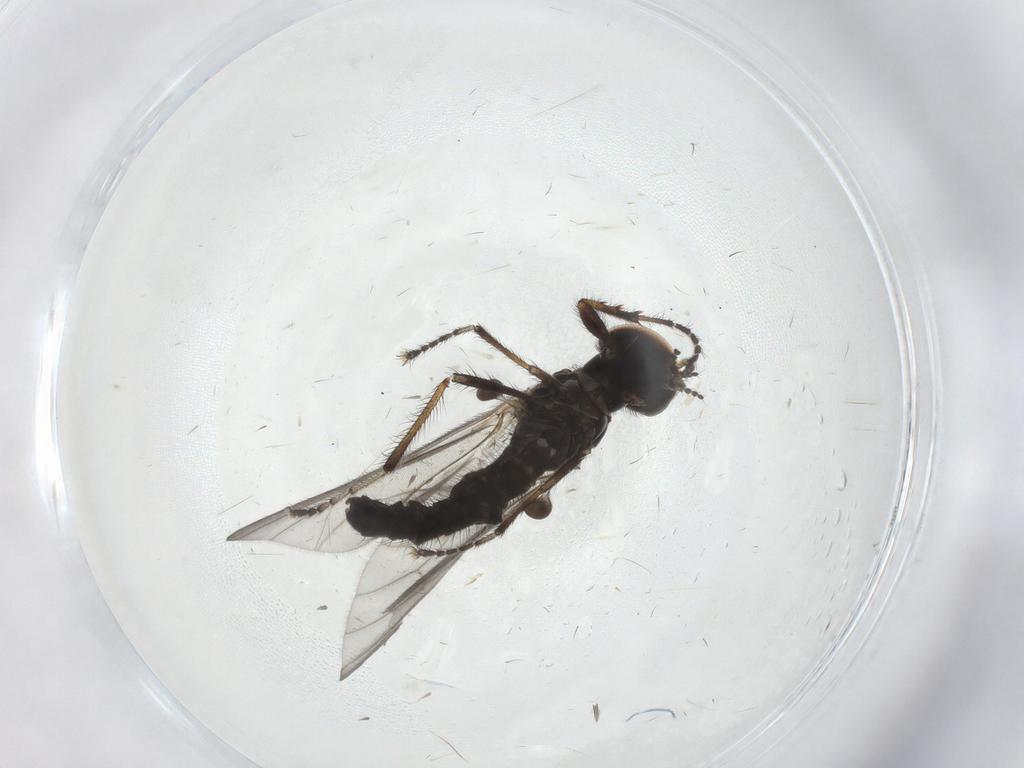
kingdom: Animalia
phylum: Arthropoda
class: Insecta
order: Diptera
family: Bibionidae
